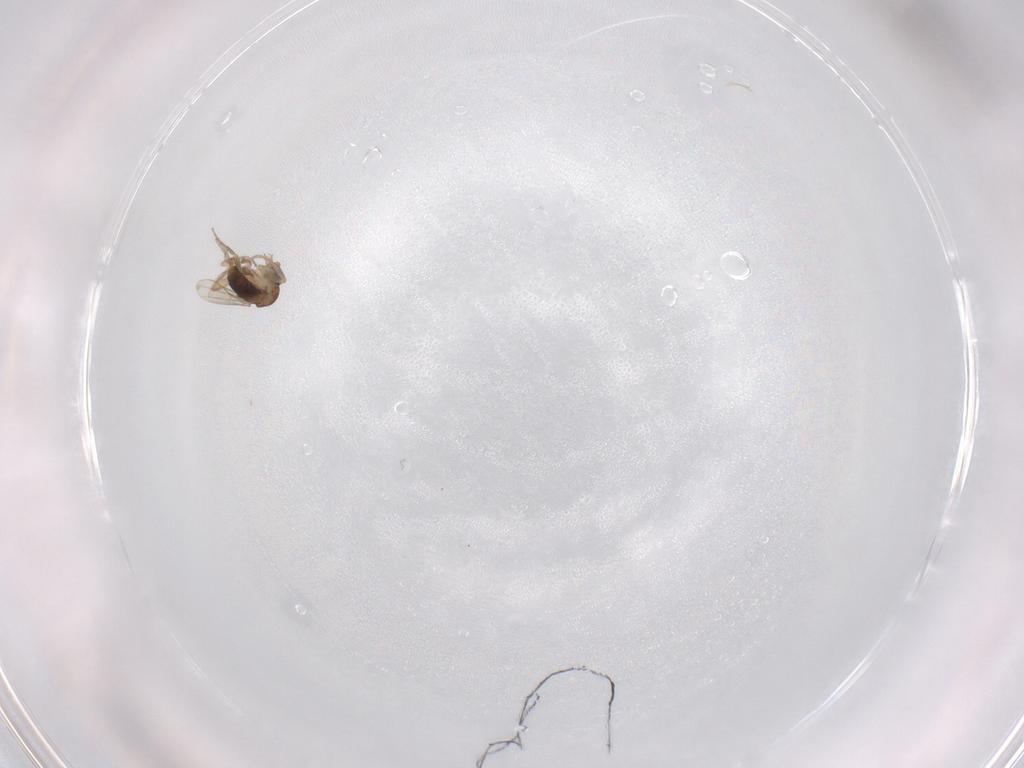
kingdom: Animalia
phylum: Arthropoda
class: Insecta
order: Diptera
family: Phoridae
